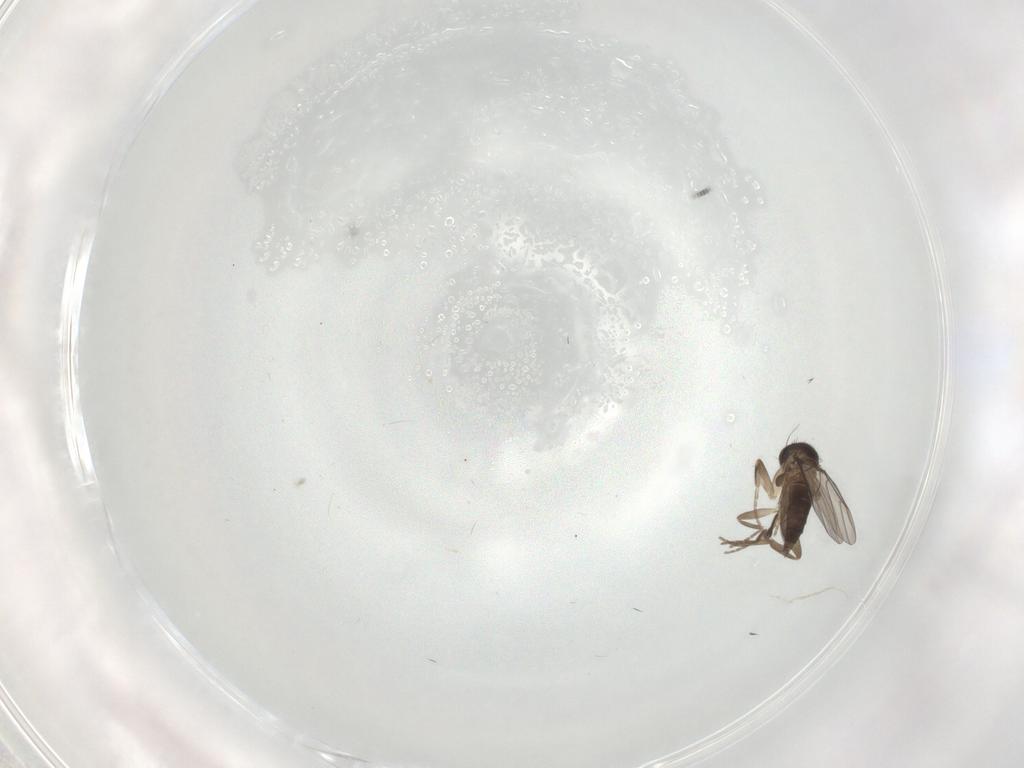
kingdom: Animalia
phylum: Arthropoda
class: Insecta
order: Diptera
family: Phoridae
